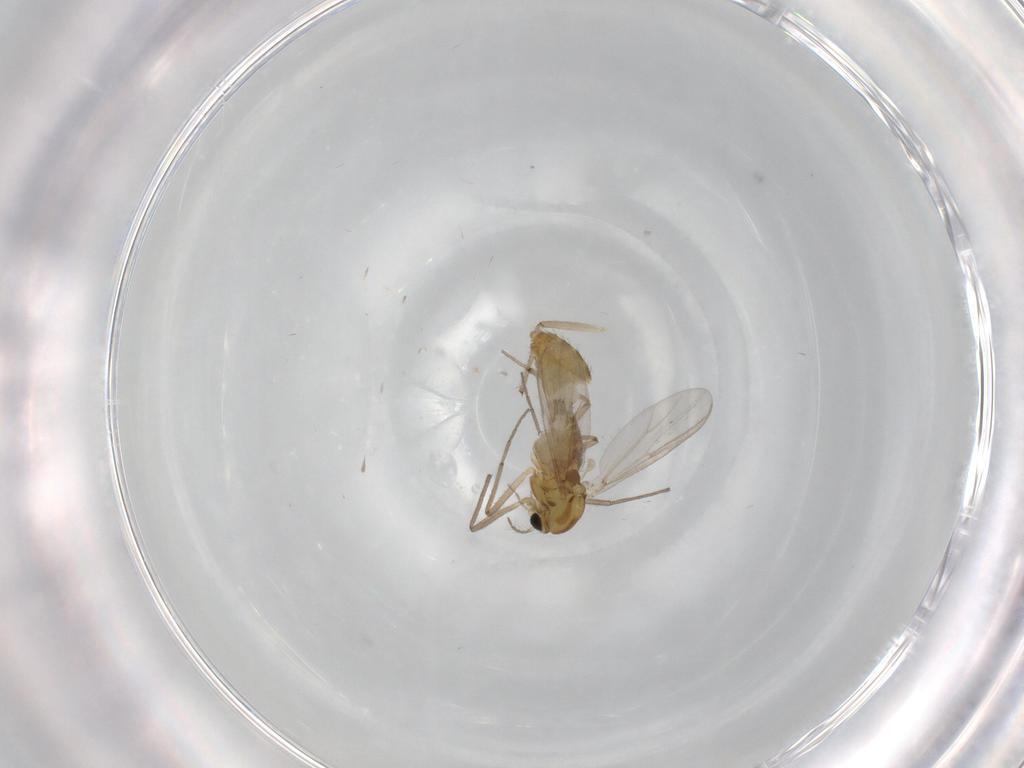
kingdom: Animalia
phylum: Arthropoda
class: Insecta
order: Diptera
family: Chironomidae
